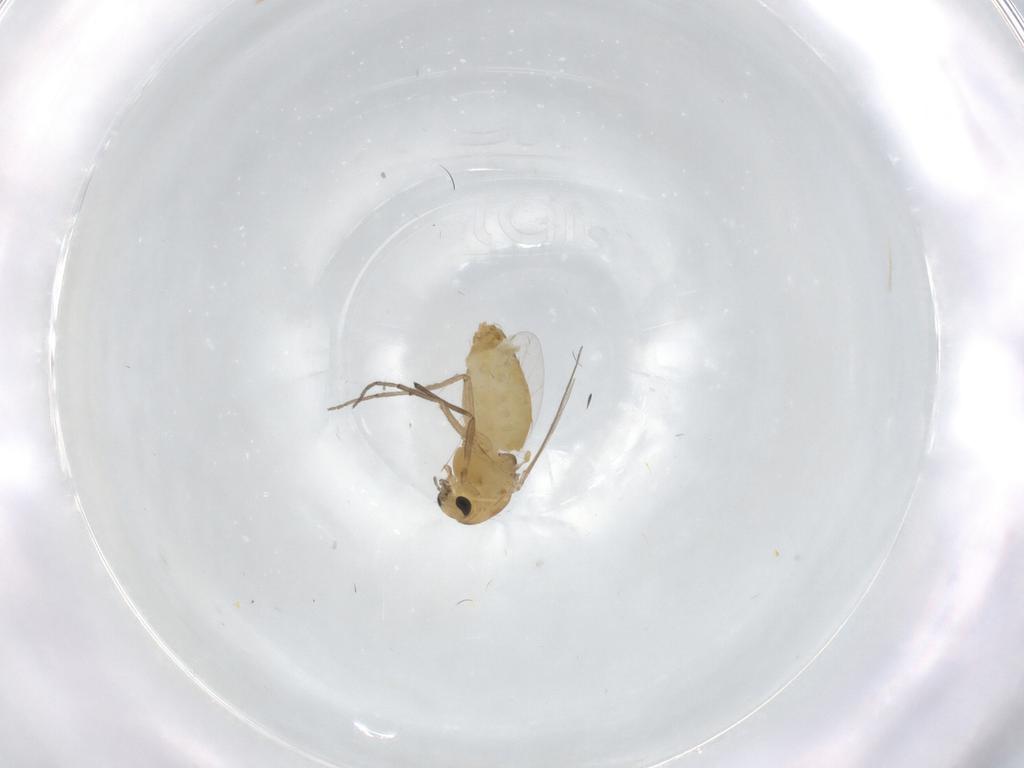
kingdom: Animalia
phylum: Arthropoda
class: Insecta
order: Diptera
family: Chironomidae
